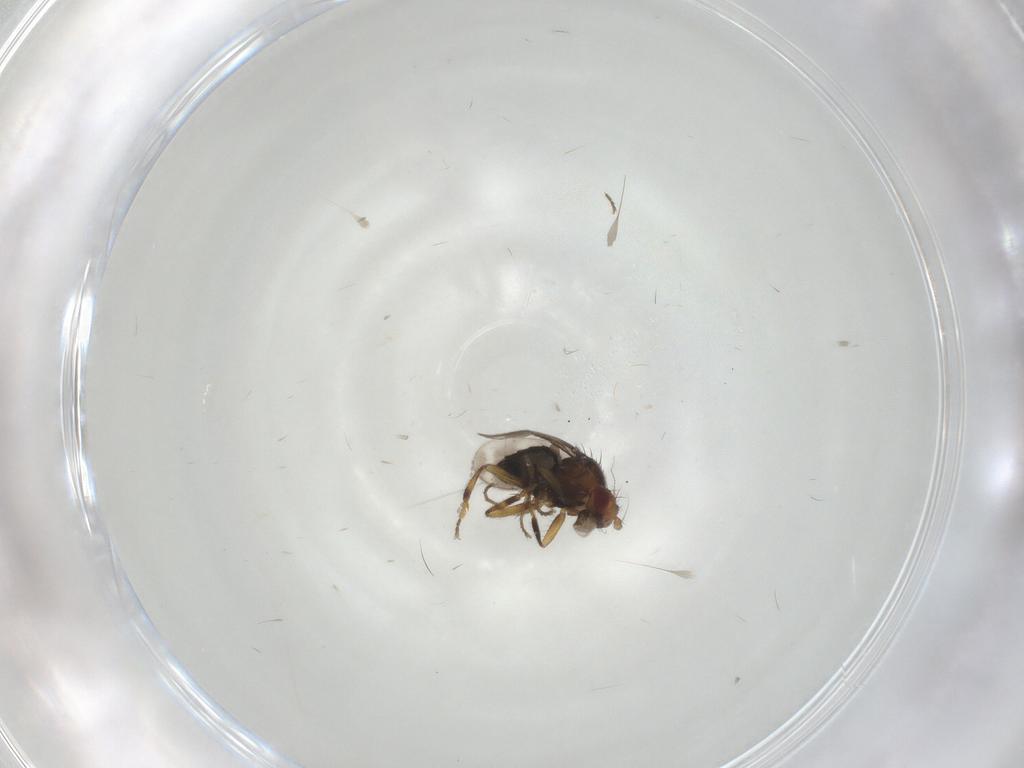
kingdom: Animalia
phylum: Arthropoda
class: Insecta
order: Diptera
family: Sphaeroceridae
